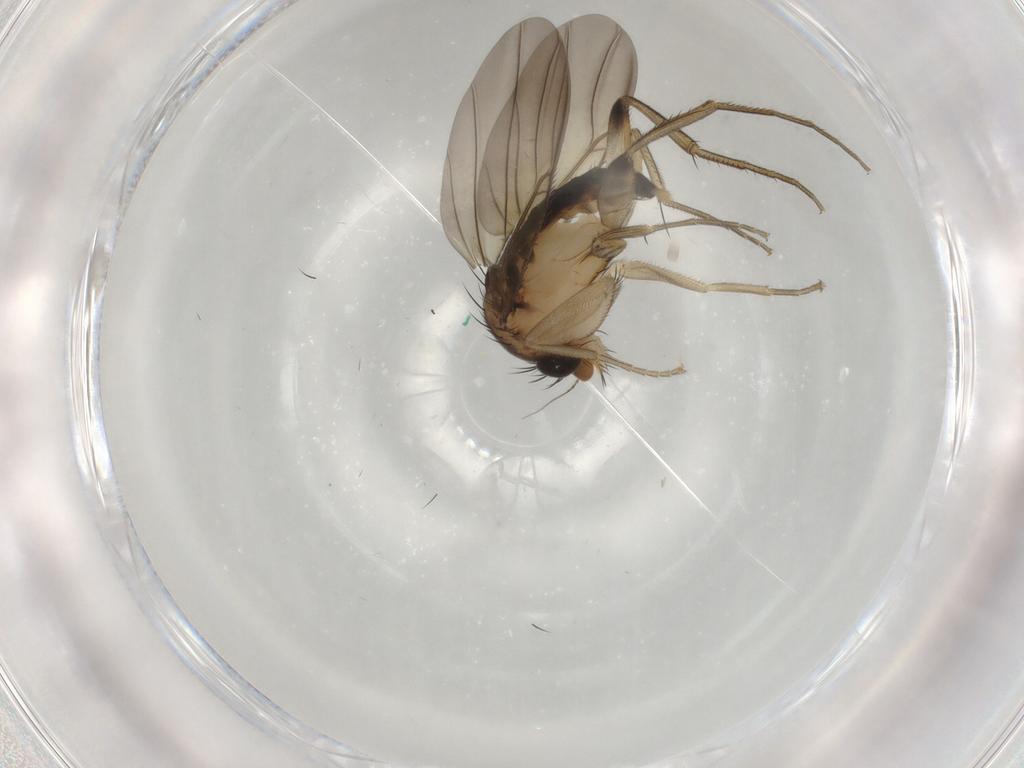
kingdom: Animalia
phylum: Arthropoda
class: Insecta
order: Diptera
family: Phoridae
